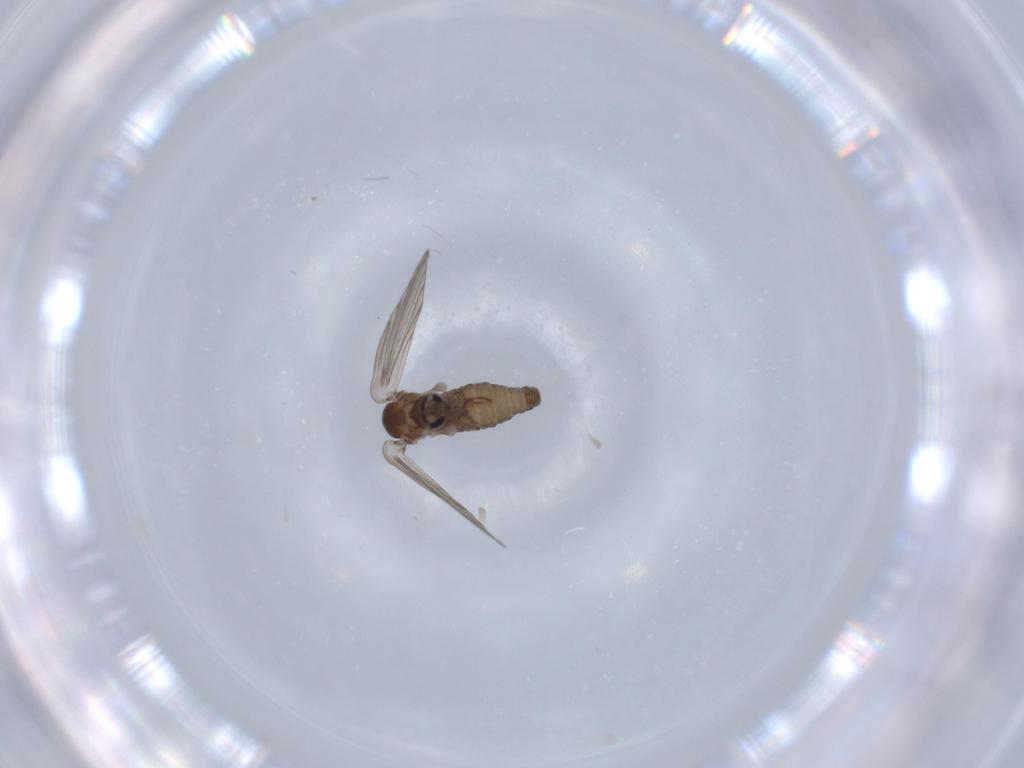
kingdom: Animalia
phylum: Arthropoda
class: Insecta
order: Diptera
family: Psychodidae
